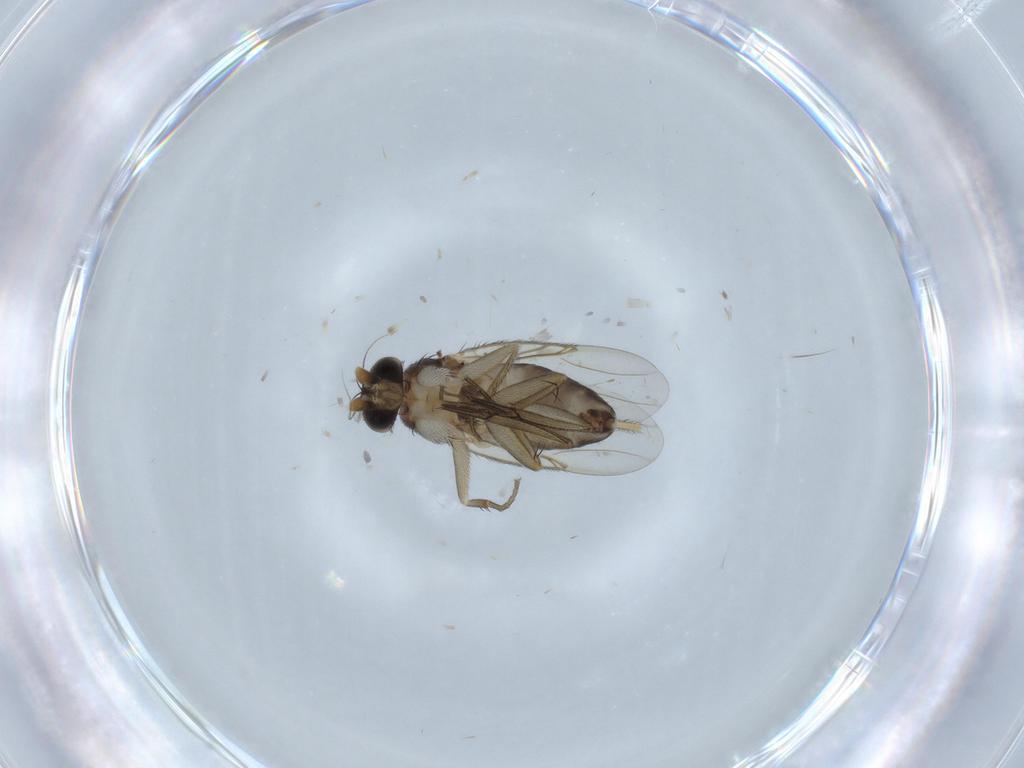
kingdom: Animalia
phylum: Arthropoda
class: Insecta
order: Diptera
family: Phoridae
